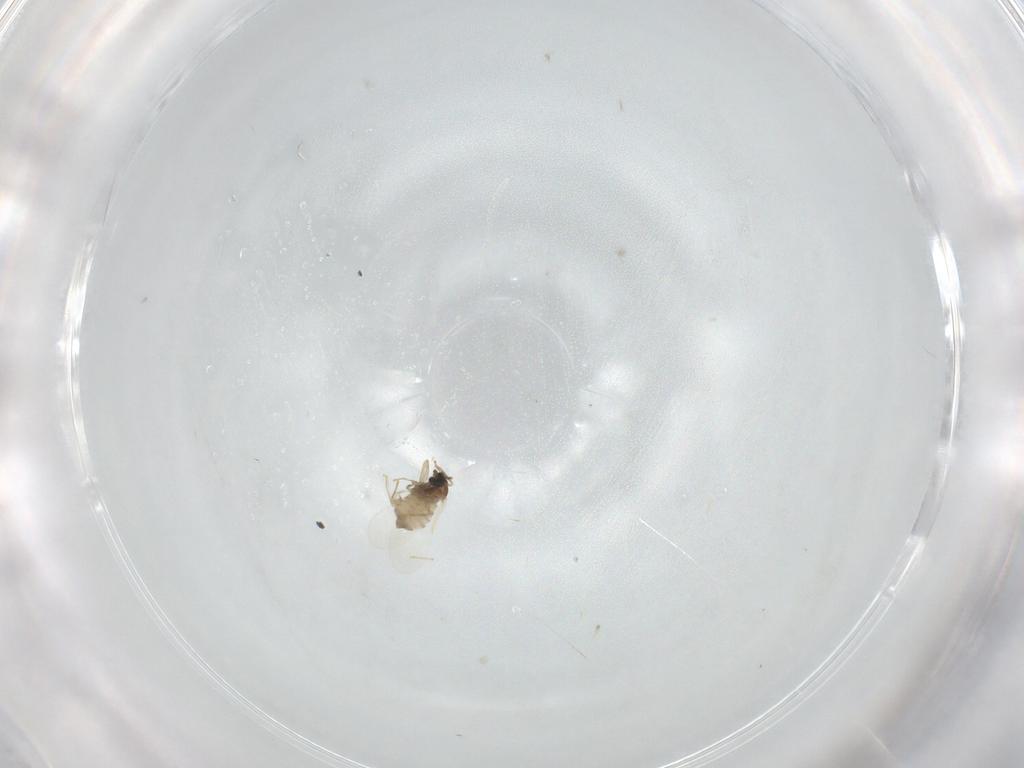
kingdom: Animalia
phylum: Arthropoda
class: Insecta
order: Diptera
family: Cecidomyiidae
